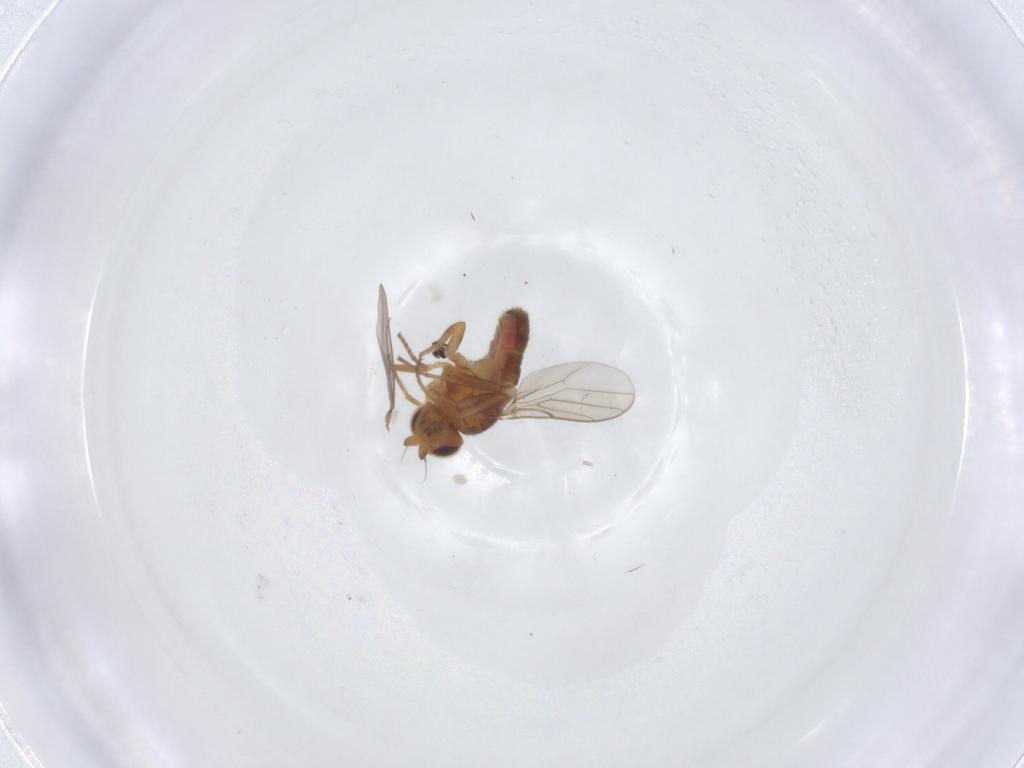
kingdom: Animalia
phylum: Arthropoda
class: Insecta
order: Diptera
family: Chloropidae
